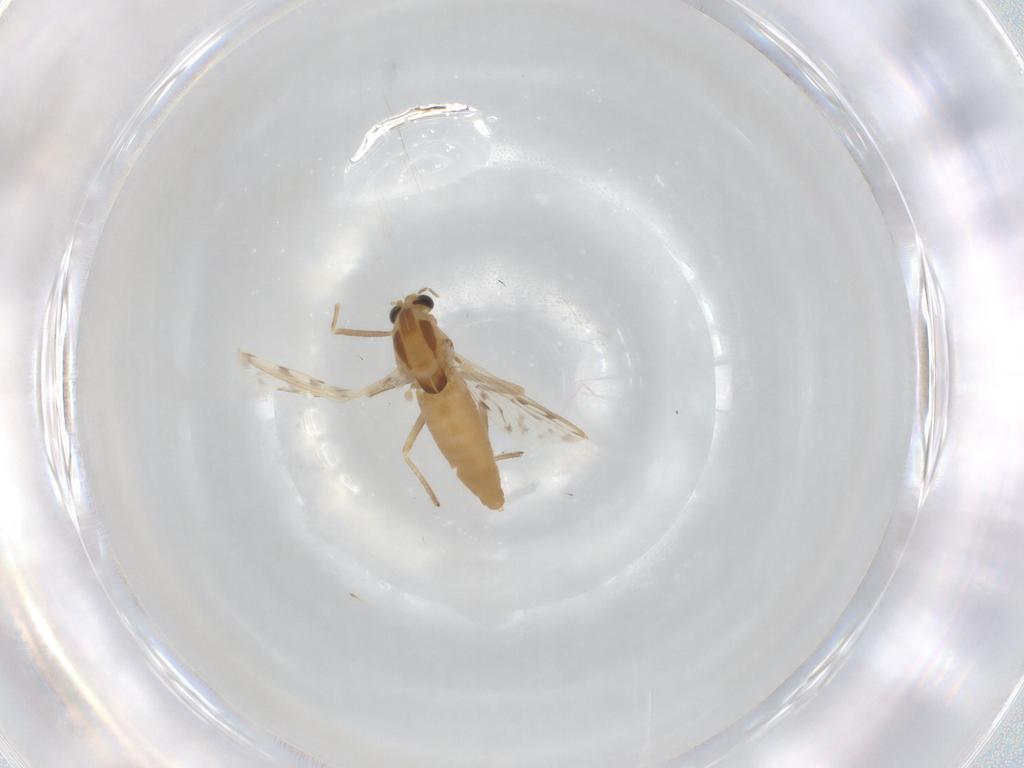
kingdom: Animalia
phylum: Arthropoda
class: Insecta
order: Diptera
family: Chironomidae
